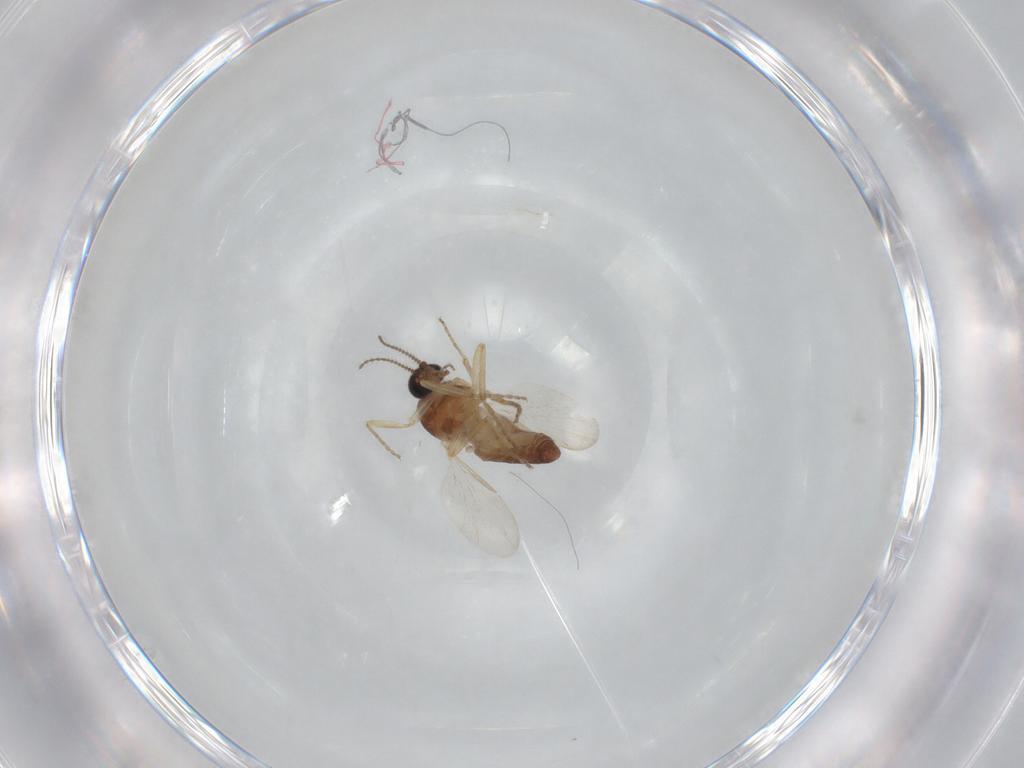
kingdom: Animalia
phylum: Arthropoda
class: Insecta
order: Diptera
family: Ceratopogonidae
